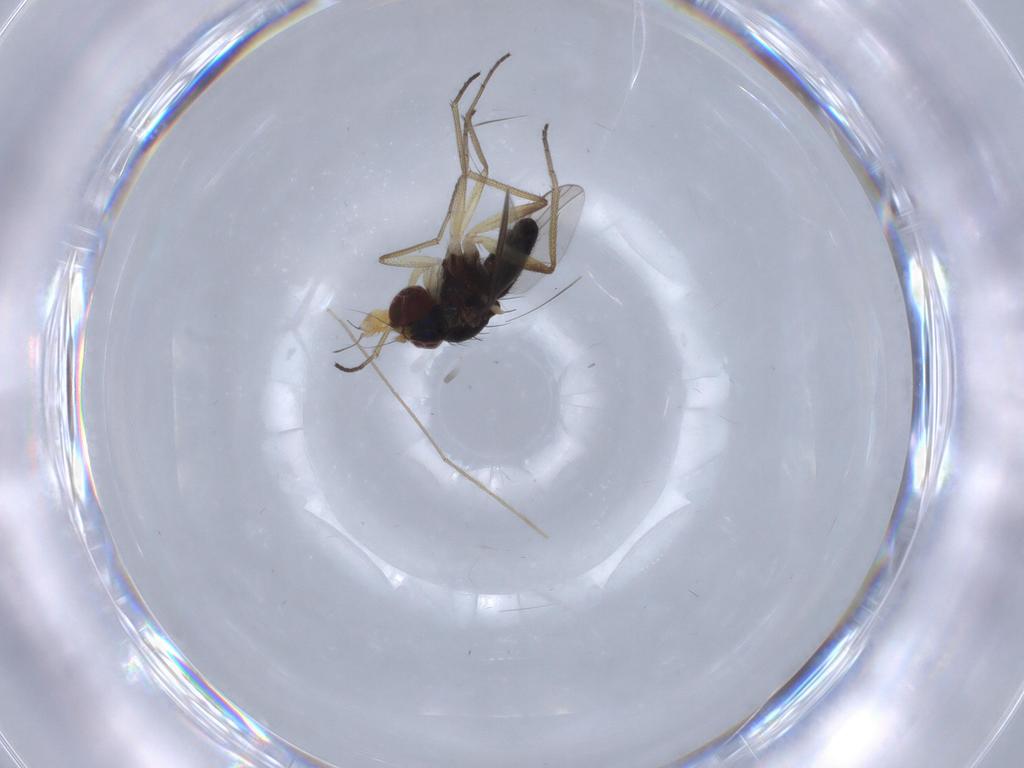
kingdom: Animalia
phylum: Arthropoda
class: Insecta
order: Diptera
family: Dolichopodidae
